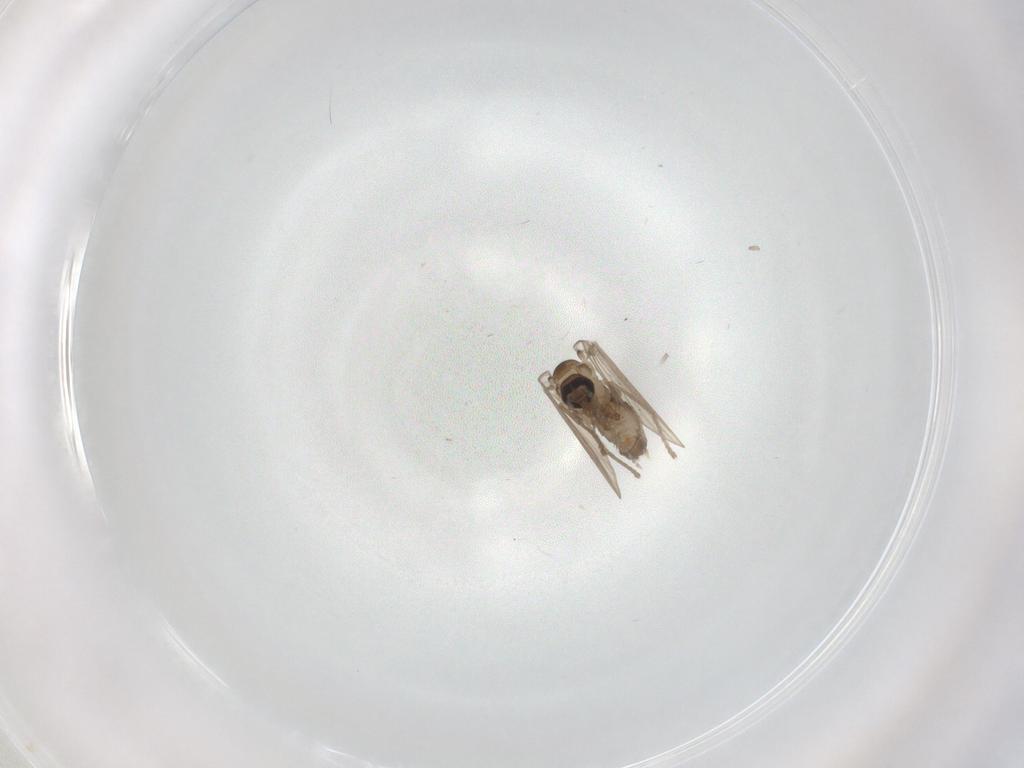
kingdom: Animalia
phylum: Arthropoda
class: Insecta
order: Diptera
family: Psychodidae
